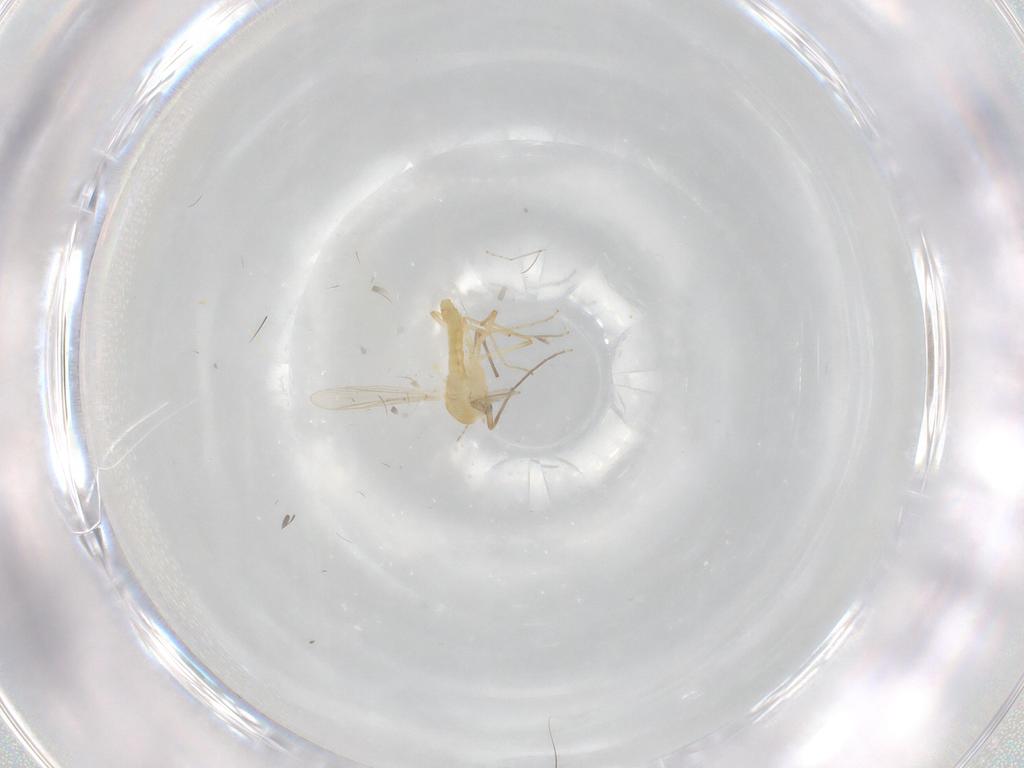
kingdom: Animalia
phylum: Arthropoda
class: Insecta
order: Diptera
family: Chironomidae
